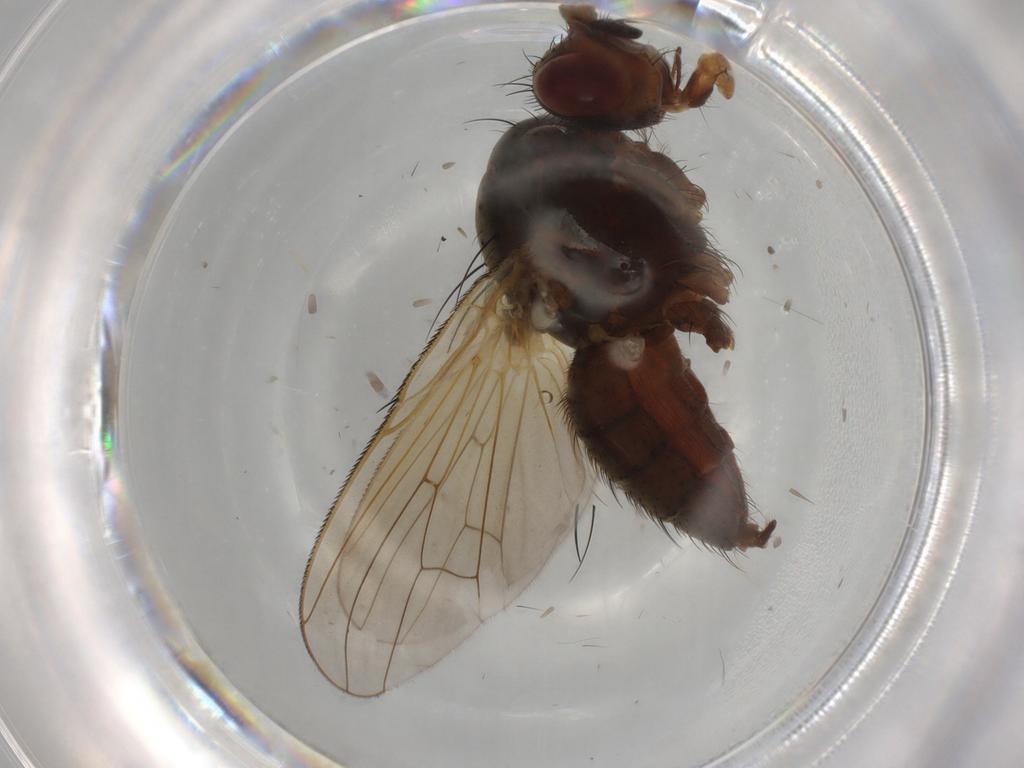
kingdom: Animalia
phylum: Arthropoda
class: Insecta
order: Diptera
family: Anthomyiidae
